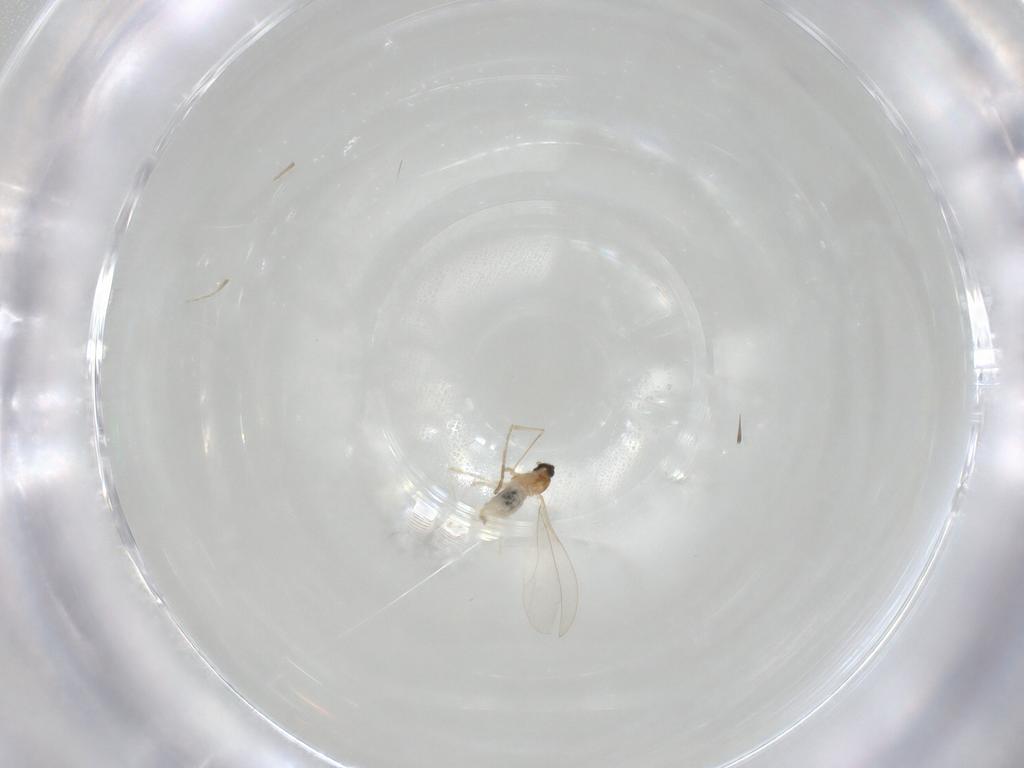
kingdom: Animalia
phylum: Arthropoda
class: Insecta
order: Diptera
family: Cecidomyiidae
